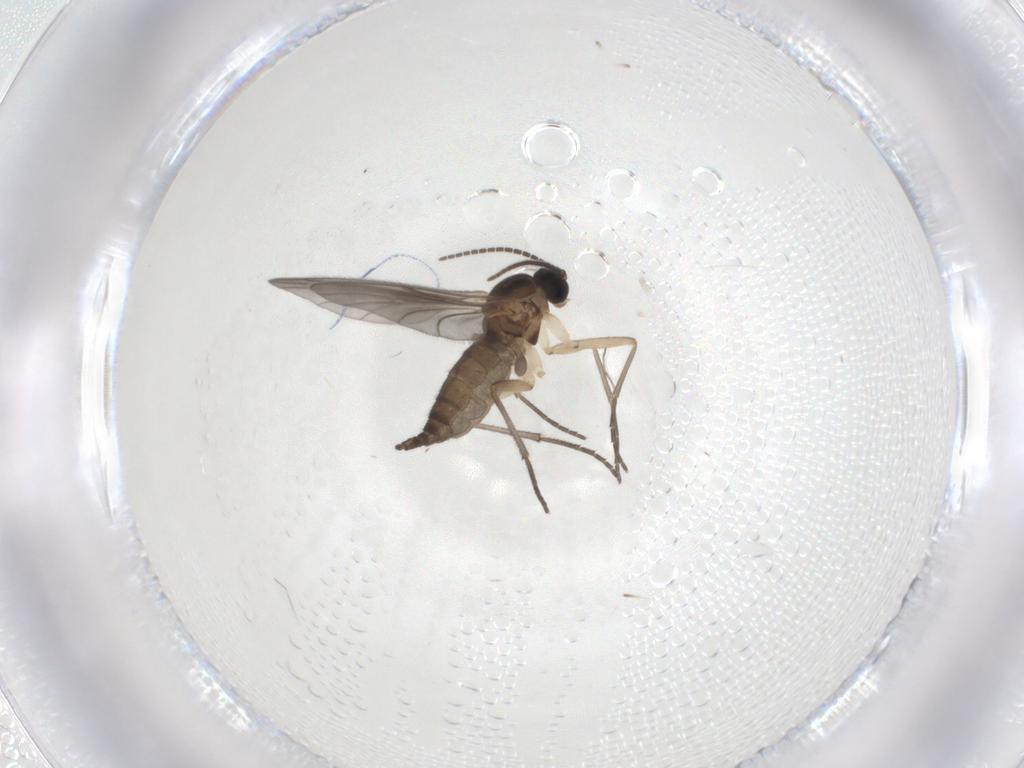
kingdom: Animalia
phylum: Arthropoda
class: Insecta
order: Diptera
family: Sciaridae
